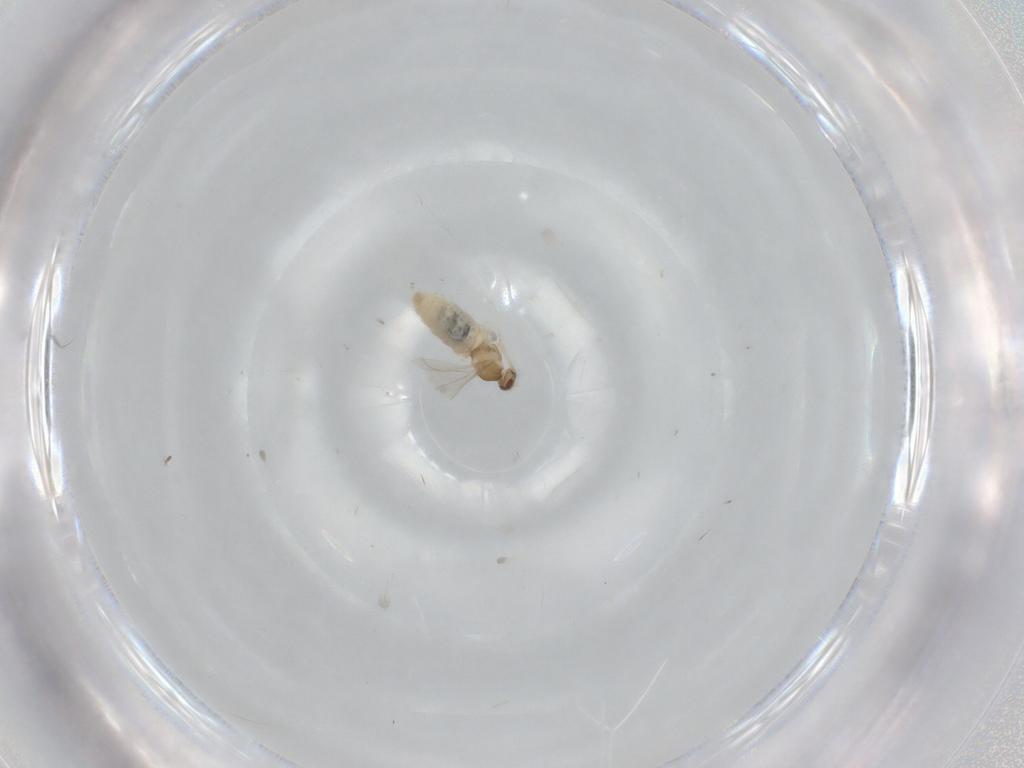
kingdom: Animalia
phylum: Arthropoda
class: Insecta
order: Diptera
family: Cecidomyiidae
